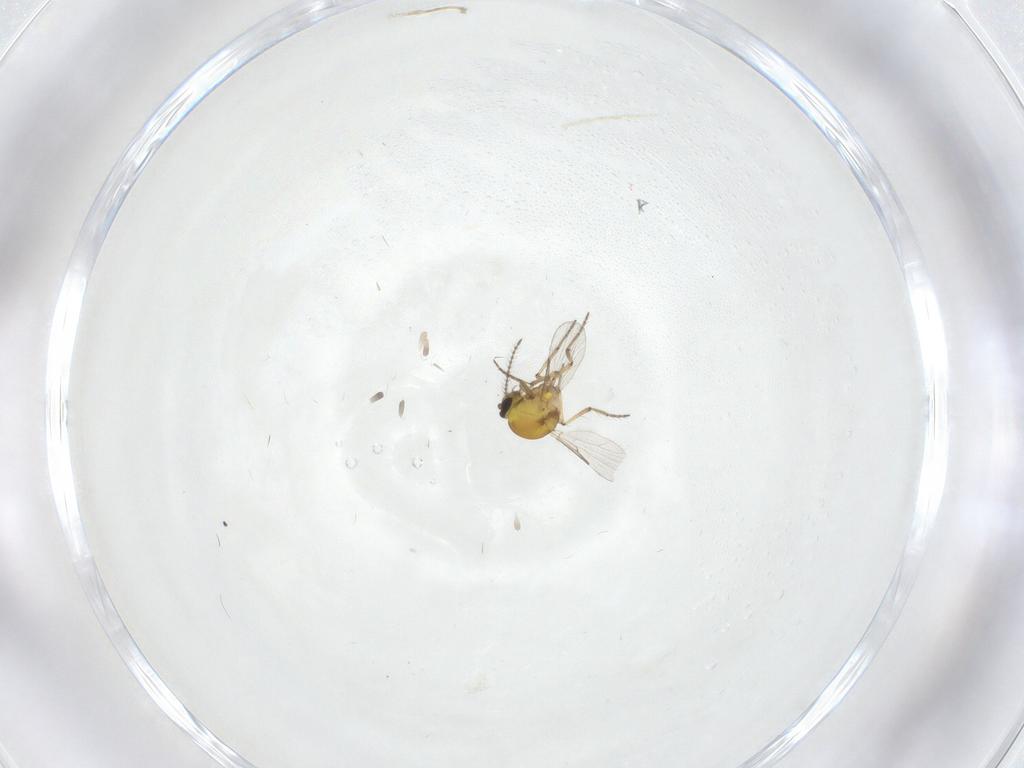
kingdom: Animalia
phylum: Arthropoda
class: Insecta
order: Diptera
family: Ceratopogonidae
